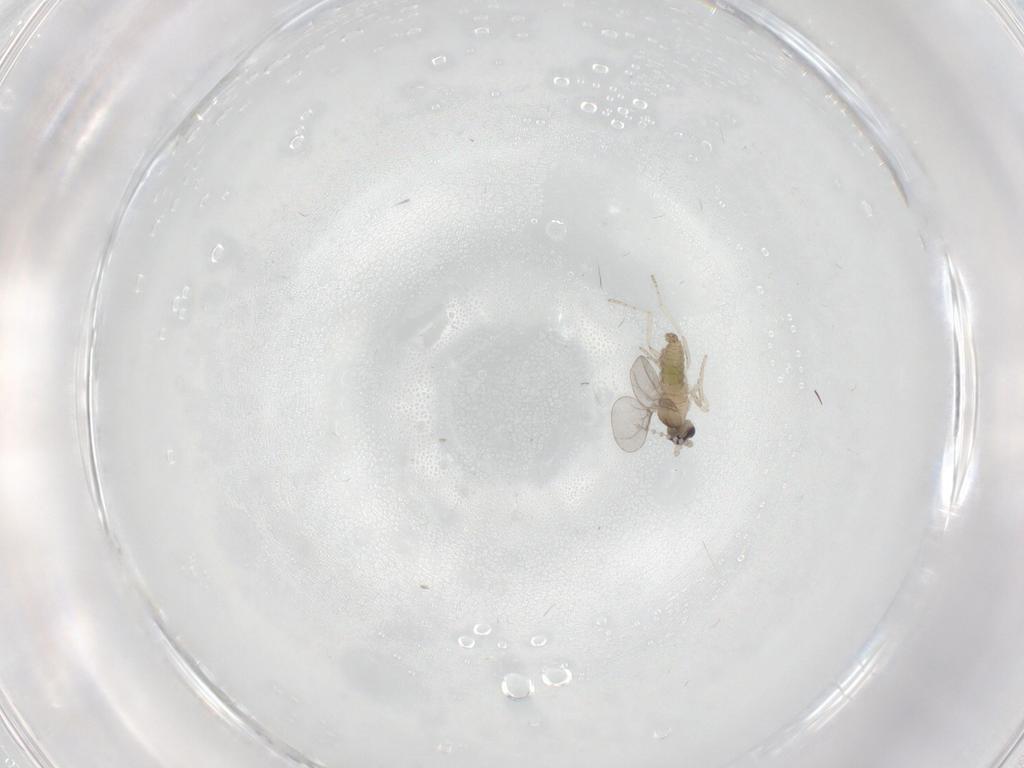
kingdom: Animalia
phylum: Arthropoda
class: Insecta
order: Diptera
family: Cecidomyiidae
